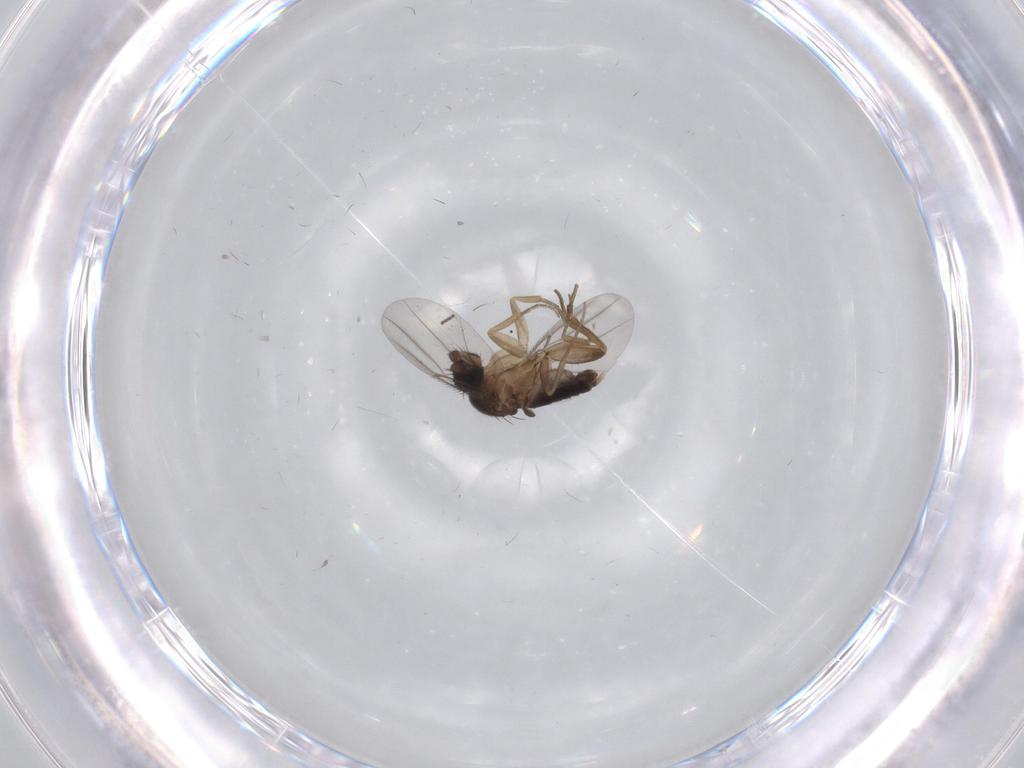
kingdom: Animalia
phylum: Arthropoda
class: Insecta
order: Diptera
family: Phoridae
